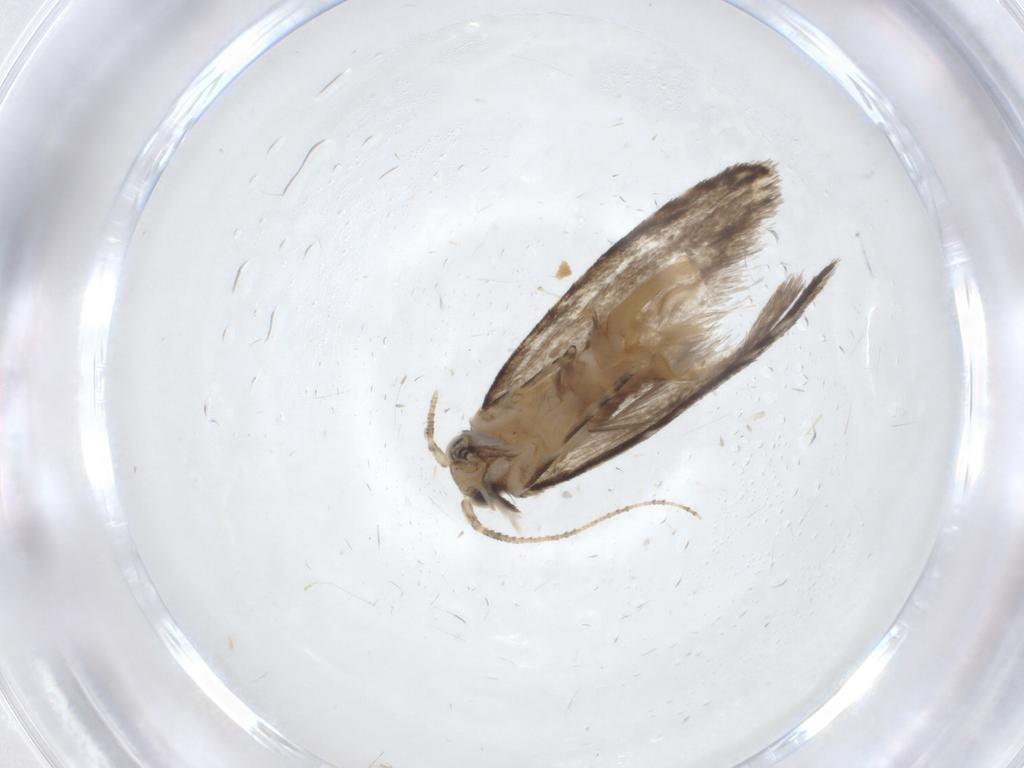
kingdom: Animalia
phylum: Arthropoda
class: Insecta
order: Lepidoptera
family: Tineidae
